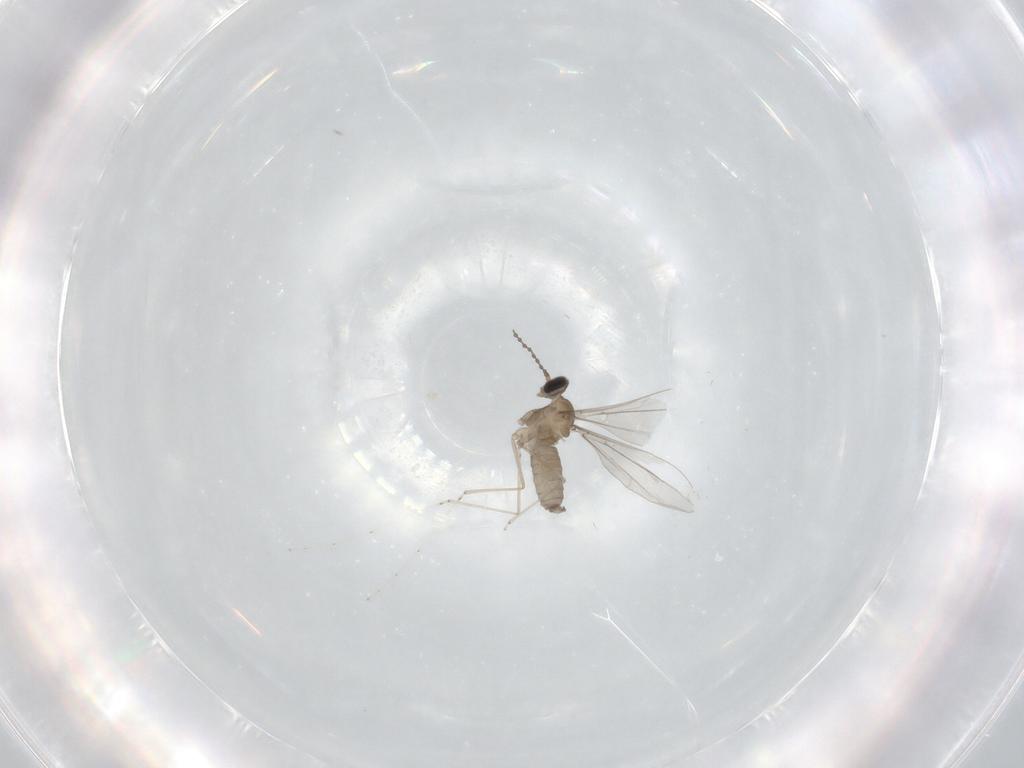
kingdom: Animalia
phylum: Arthropoda
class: Insecta
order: Diptera
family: Cecidomyiidae
